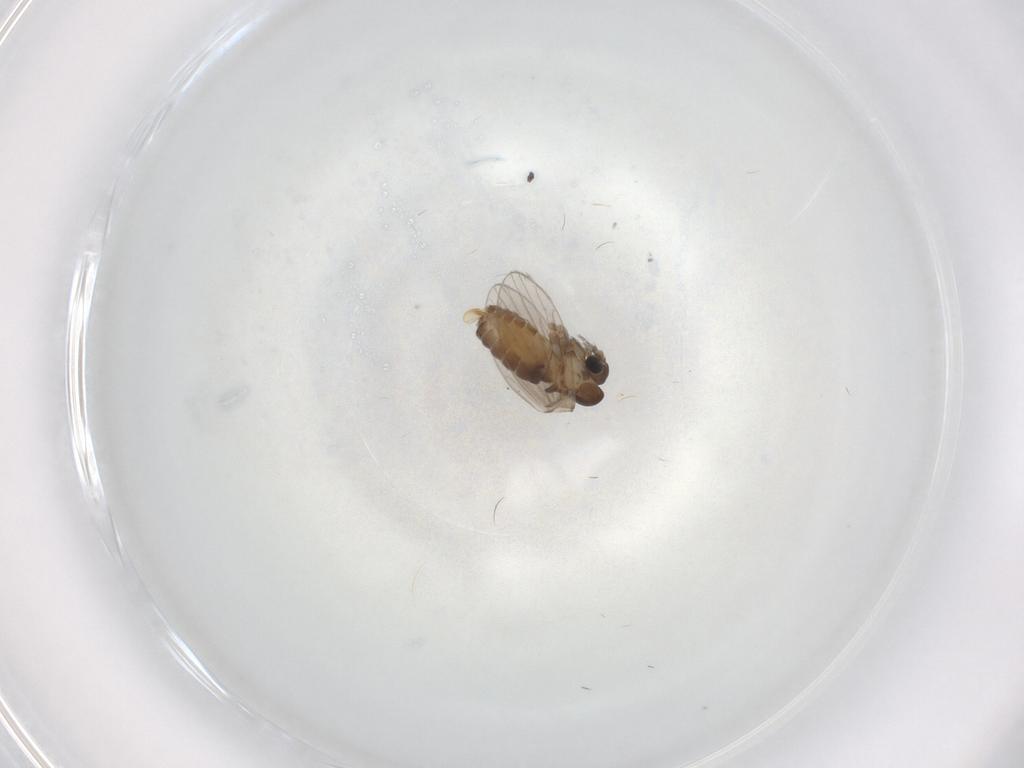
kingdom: Animalia
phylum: Arthropoda
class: Insecta
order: Diptera
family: Psychodidae
